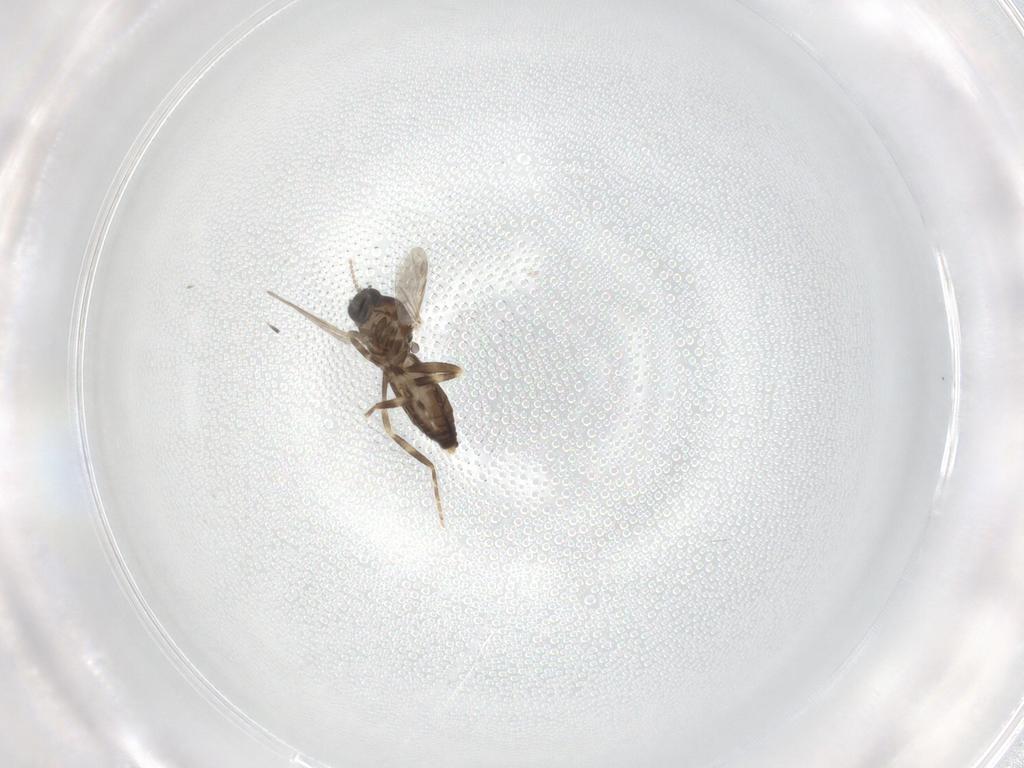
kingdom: Animalia
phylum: Arthropoda
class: Insecta
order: Diptera
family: Ceratopogonidae
